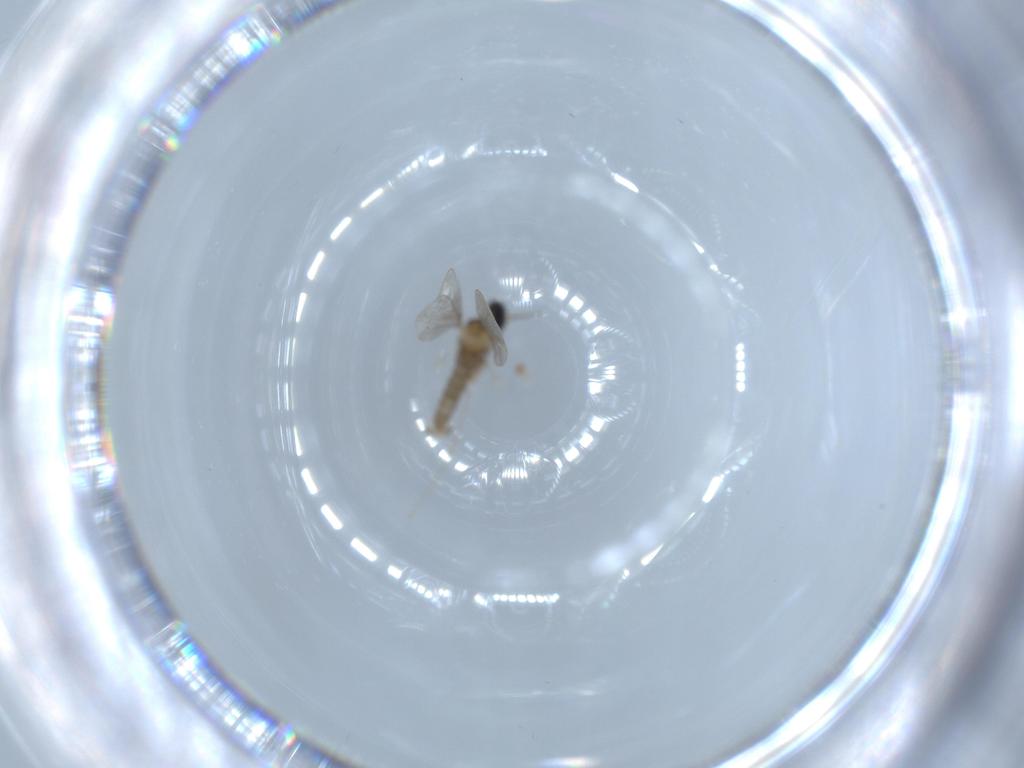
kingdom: Animalia
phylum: Arthropoda
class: Insecta
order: Diptera
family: Cecidomyiidae
